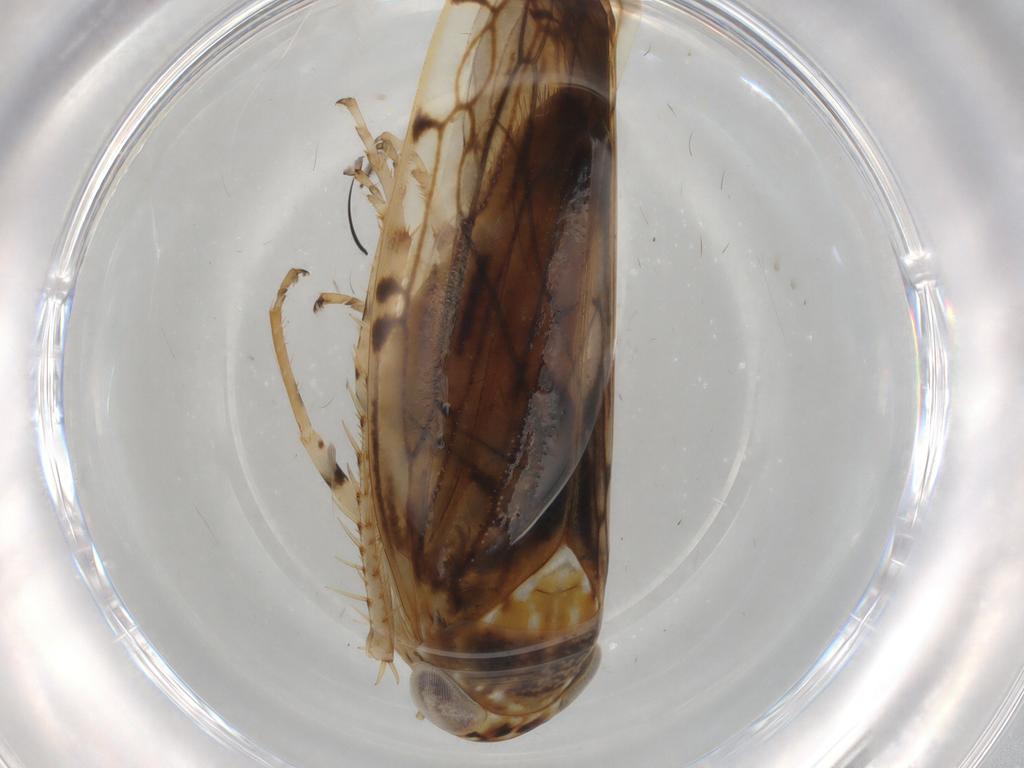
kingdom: Animalia
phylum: Arthropoda
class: Insecta
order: Hemiptera
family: Cicadellidae
